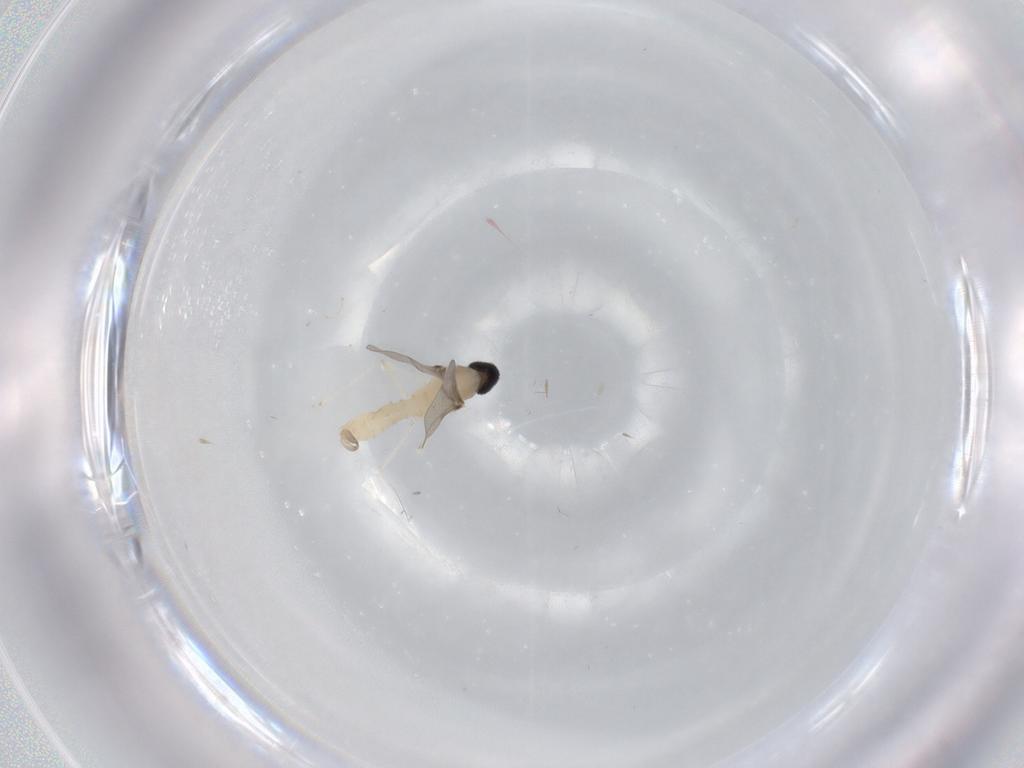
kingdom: Animalia
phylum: Arthropoda
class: Insecta
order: Diptera
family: Cecidomyiidae
